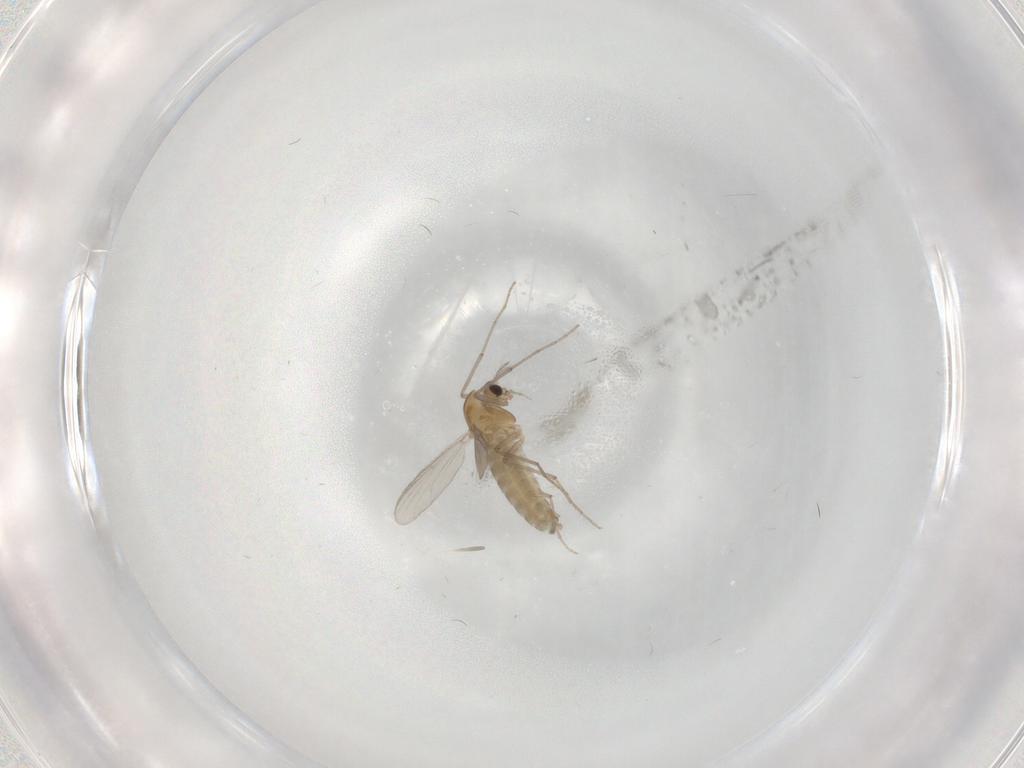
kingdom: Animalia
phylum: Arthropoda
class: Insecta
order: Diptera
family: Chironomidae
